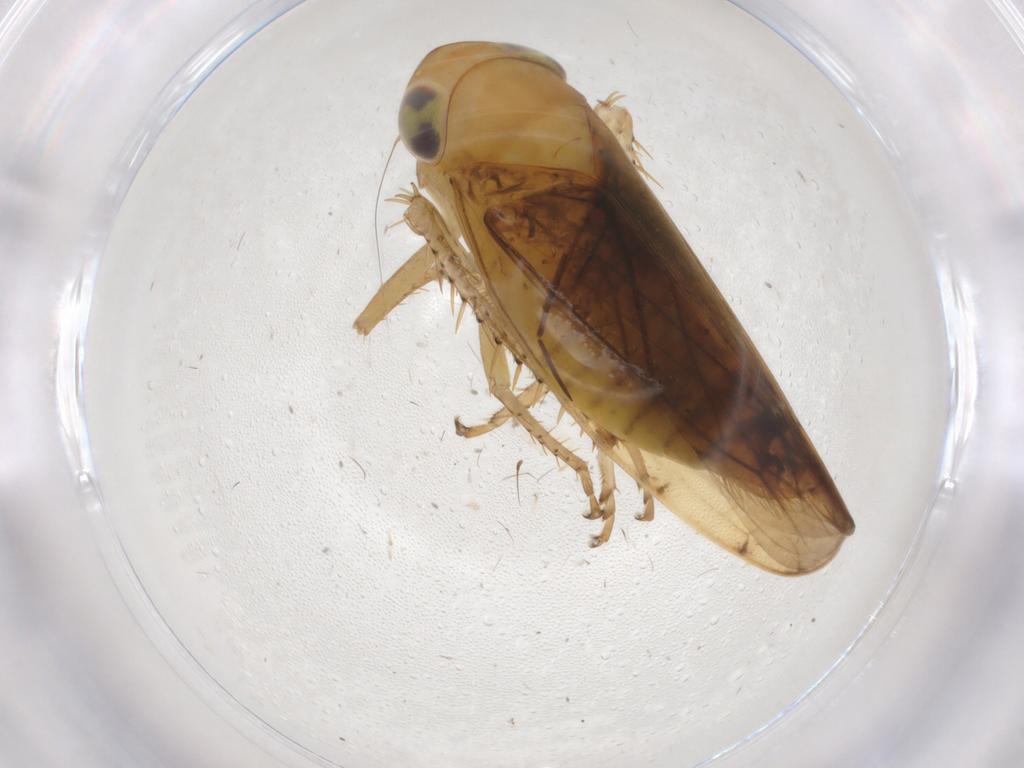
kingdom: Animalia
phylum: Arthropoda
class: Insecta
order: Hemiptera
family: Cicadellidae
